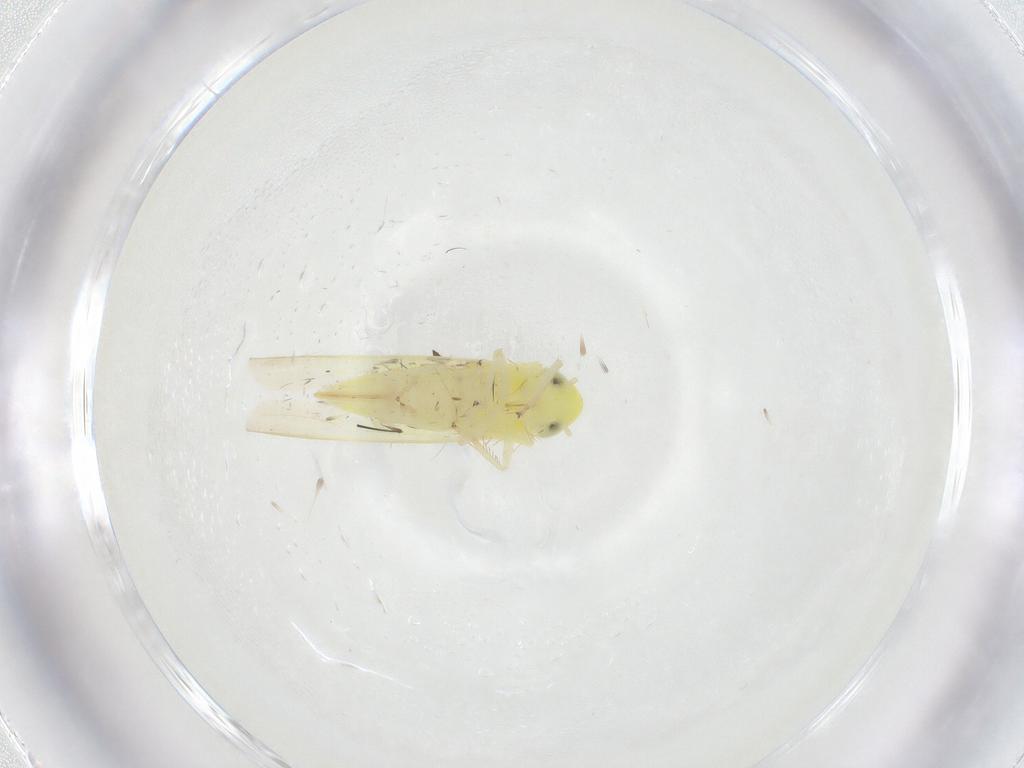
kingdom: Animalia
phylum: Arthropoda
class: Insecta
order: Hemiptera
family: Cicadellidae
